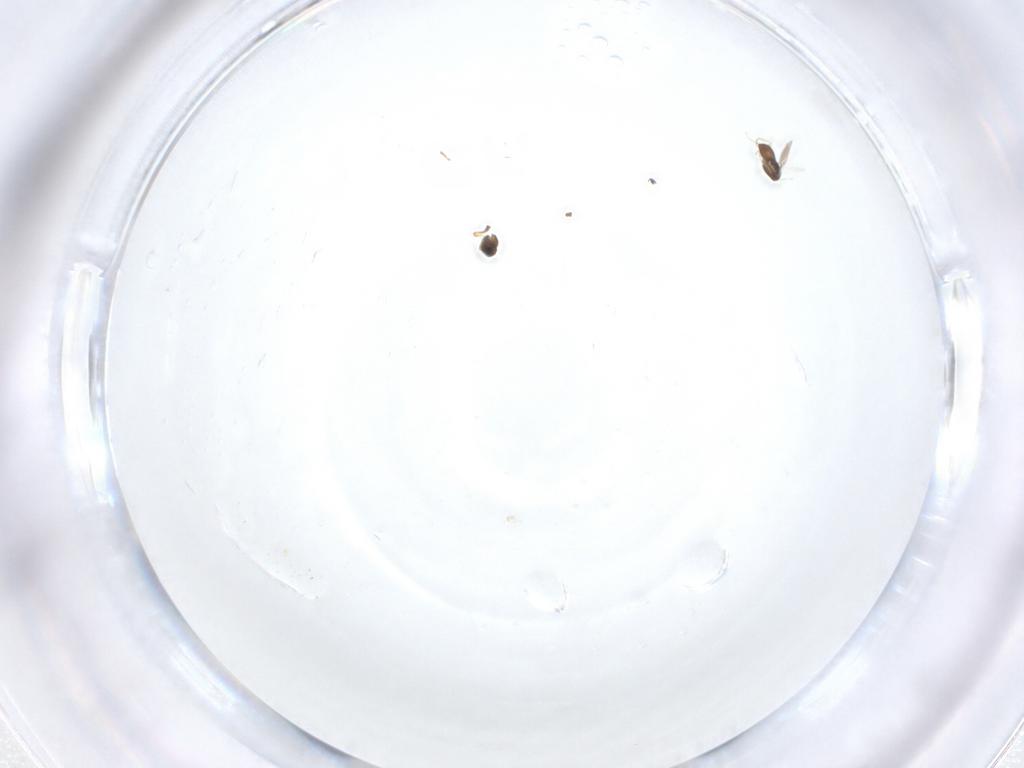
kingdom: Animalia
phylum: Arthropoda
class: Insecta
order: Hymenoptera
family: Scelionidae
